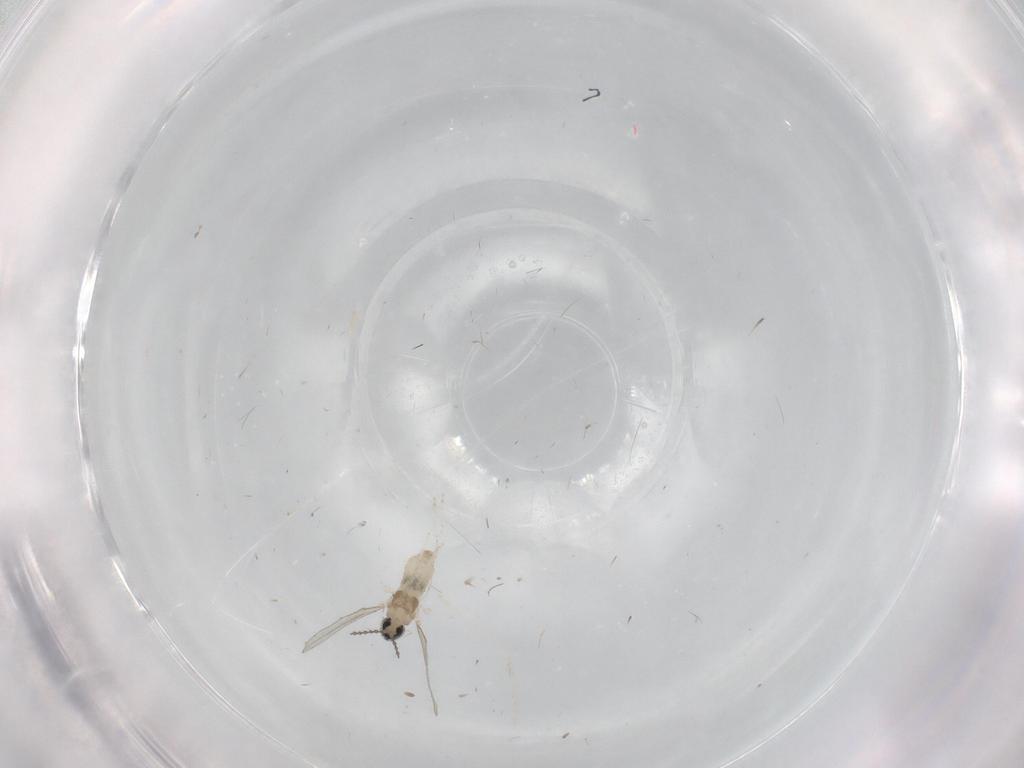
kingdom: Animalia
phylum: Arthropoda
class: Insecta
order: Diptera
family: Cecidomyiidae
